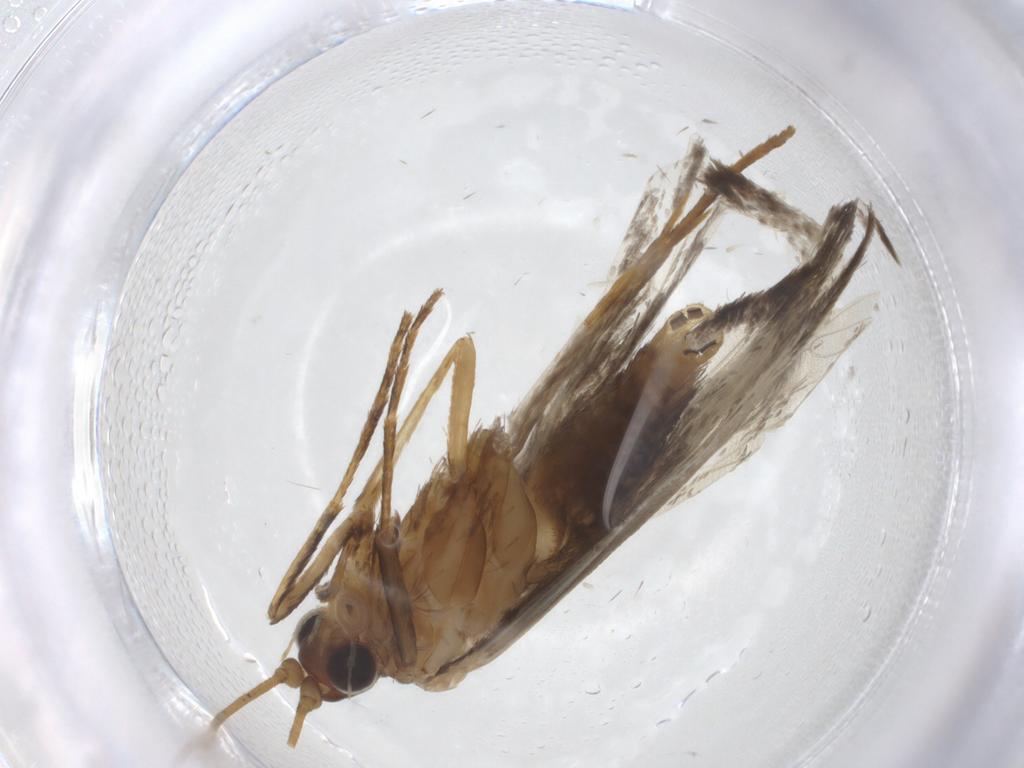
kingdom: Animalia
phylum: Arthropoda
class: Insecta
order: Lepidoptera
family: Adelidae
